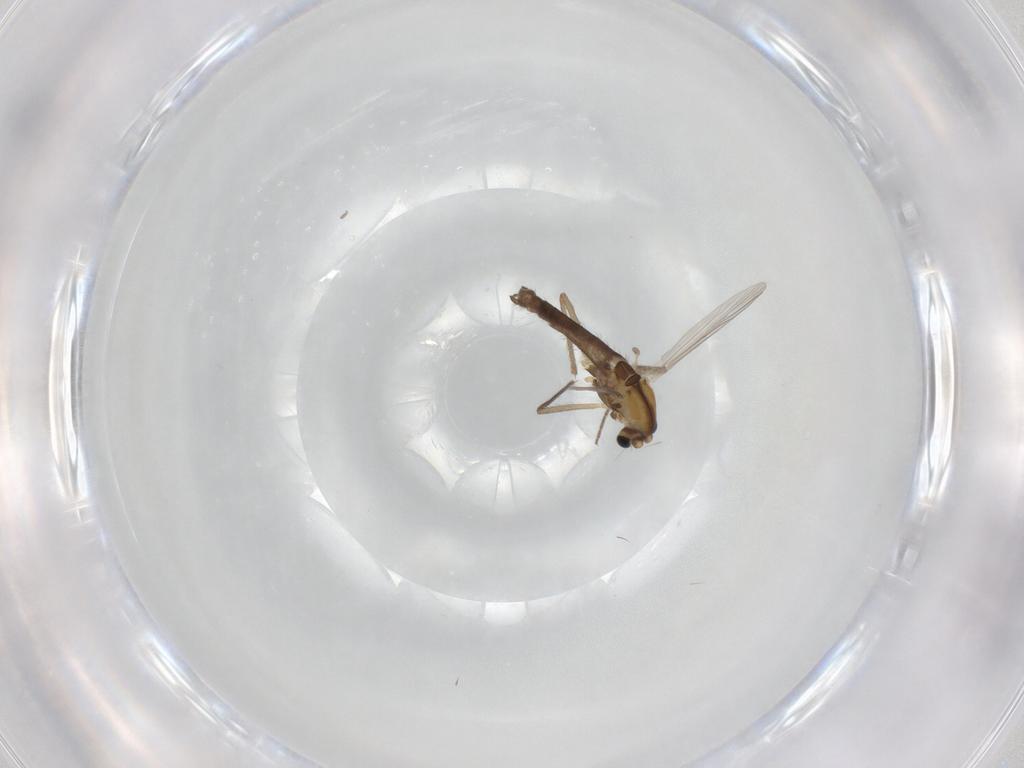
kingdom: Animalia
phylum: Arthropoda
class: Insecta
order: Diptera
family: Chironomidae
